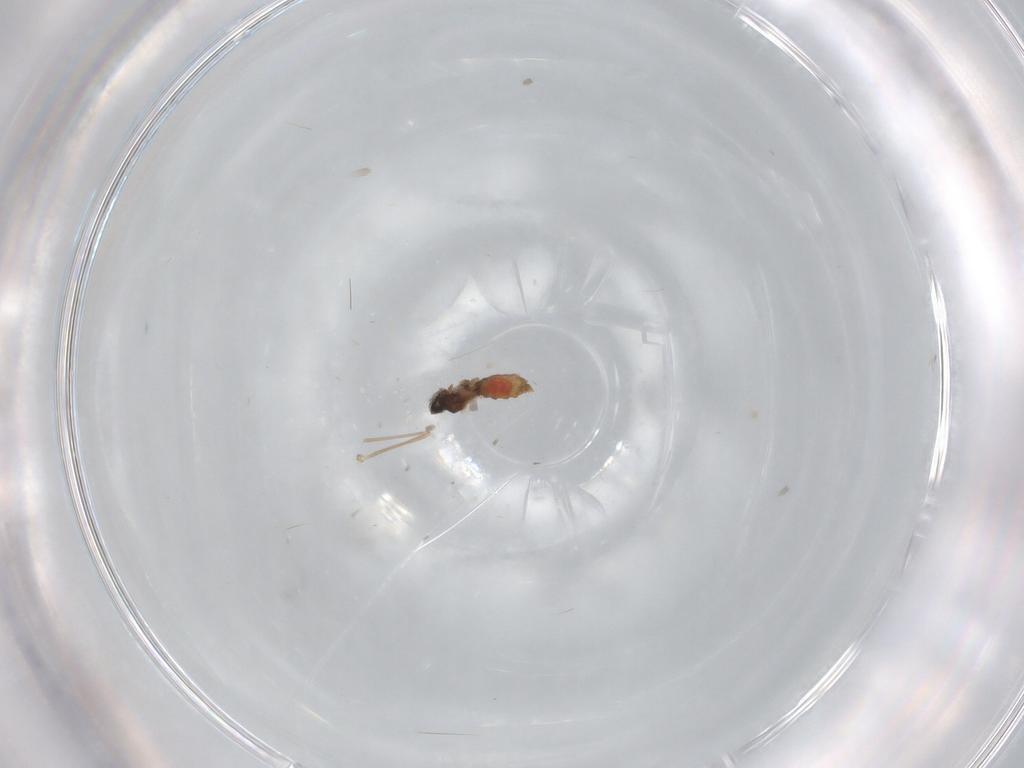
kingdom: Animalia
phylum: Arthropoda
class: Insecta
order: Diptera
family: Cecidomyiidae
